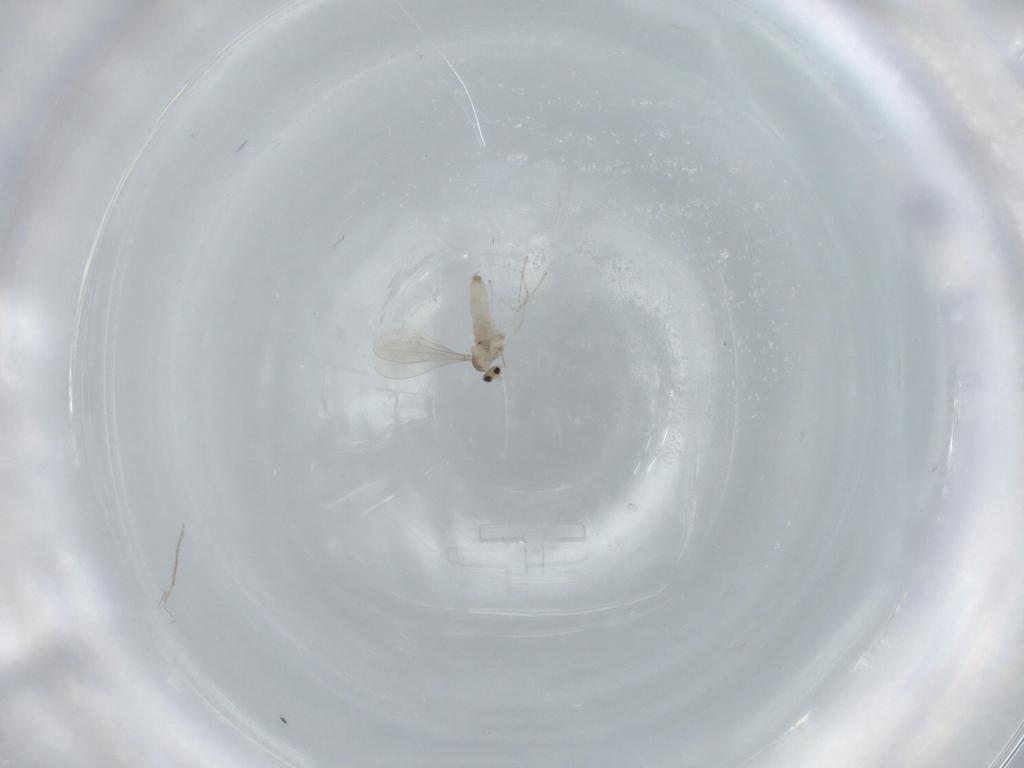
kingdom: Animalia
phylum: Arthropoda
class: Insecta
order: Diptera
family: Cecidomyiidae
